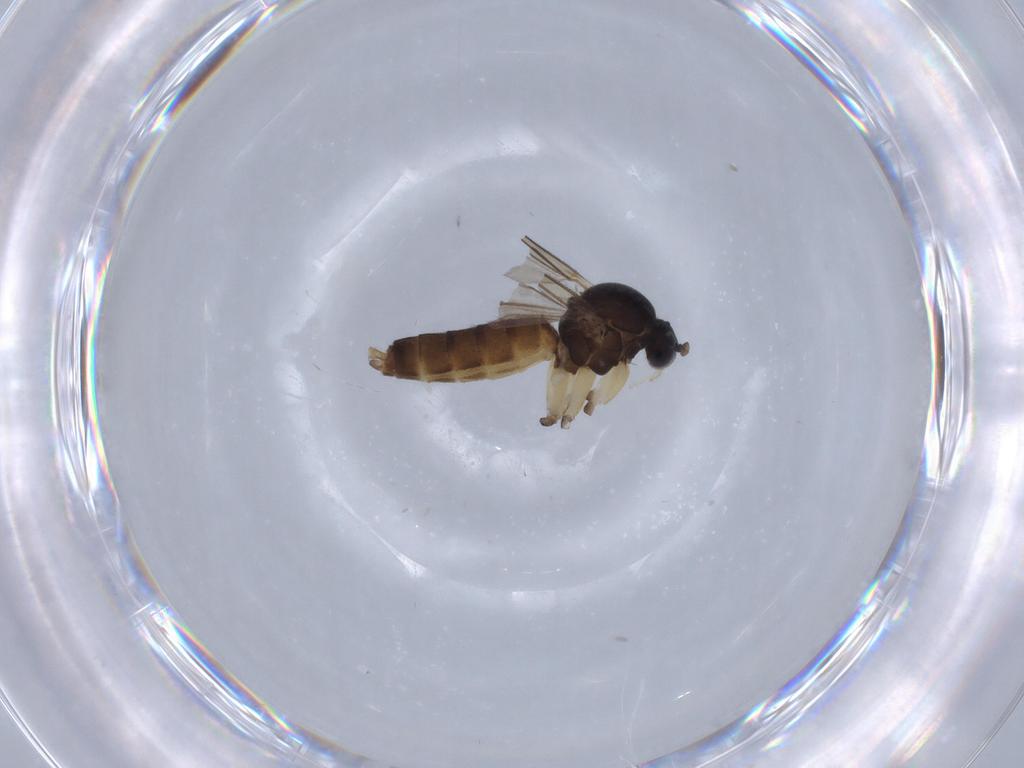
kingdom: Animalia
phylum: Arthropoda
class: Insecta
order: Diptera
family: Mycetophilidae
